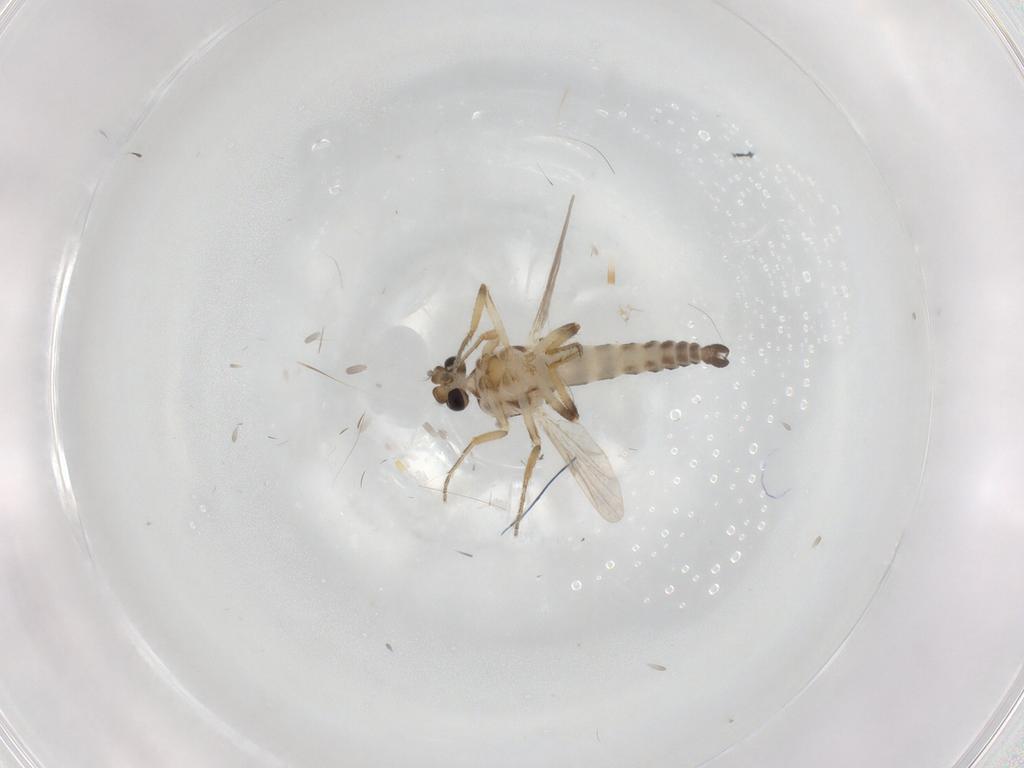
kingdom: Animalia
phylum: Arthropoda
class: Insecta
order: Diptera
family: Ceratopogonidae
